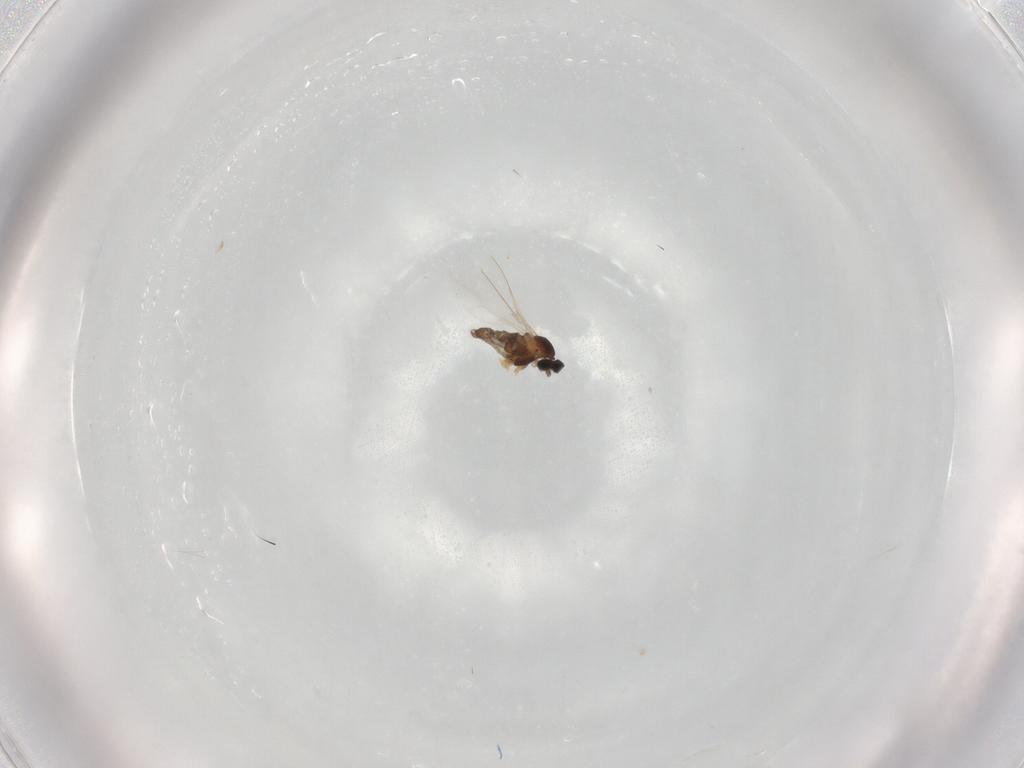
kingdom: Animalia
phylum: Arthropoda
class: Insecta
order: Diptera
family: Cecidomyiidae
